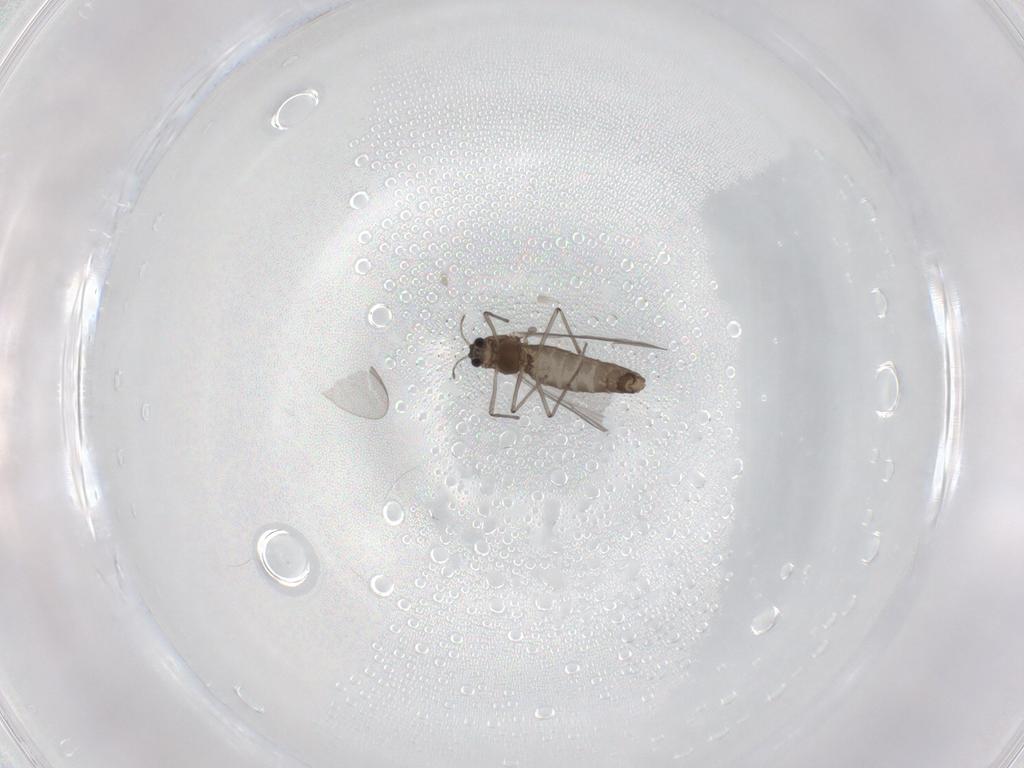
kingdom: Animalia
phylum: Arthropoda
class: Insecta
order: Diptera
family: Chironomidae
